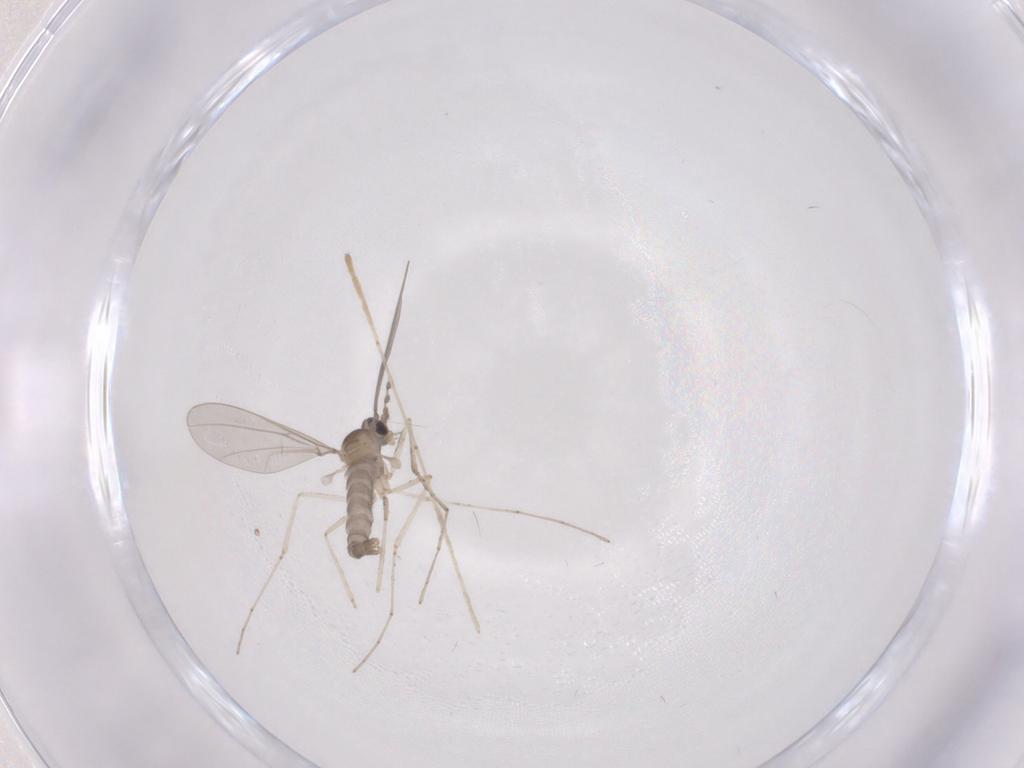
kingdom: Animalia
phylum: Arthropoda
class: Insecta
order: Diptera
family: Cecidomyiidae
